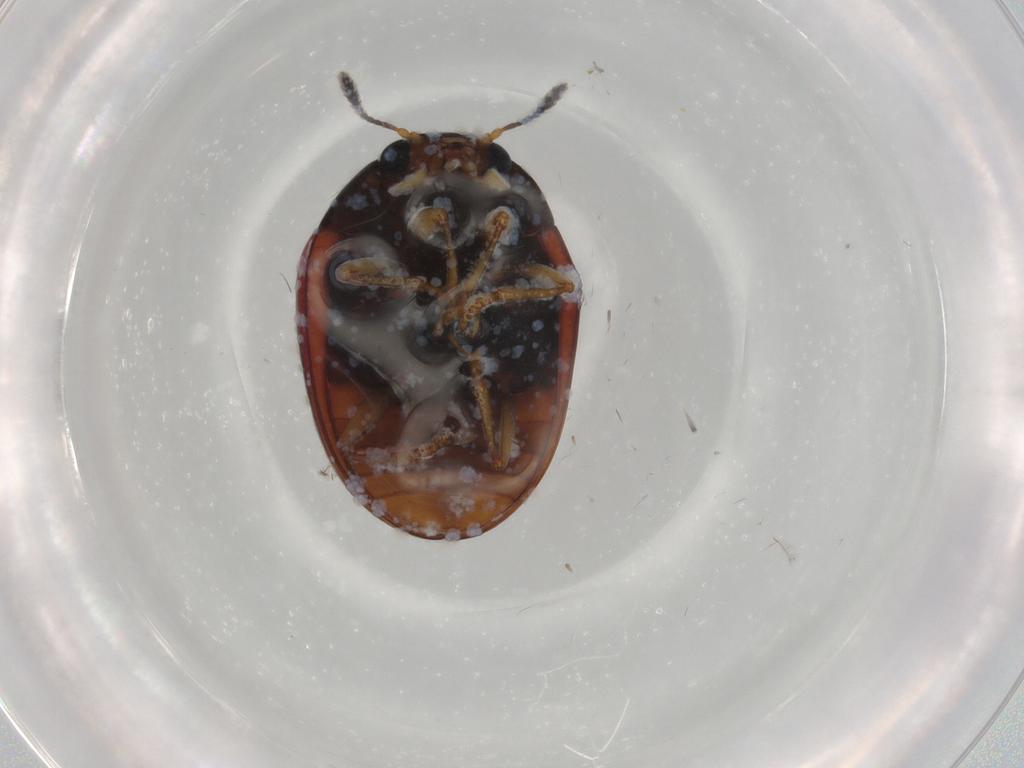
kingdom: Animalia
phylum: Arthropoda
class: Insecta
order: Coleoptera
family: Erotylidae
